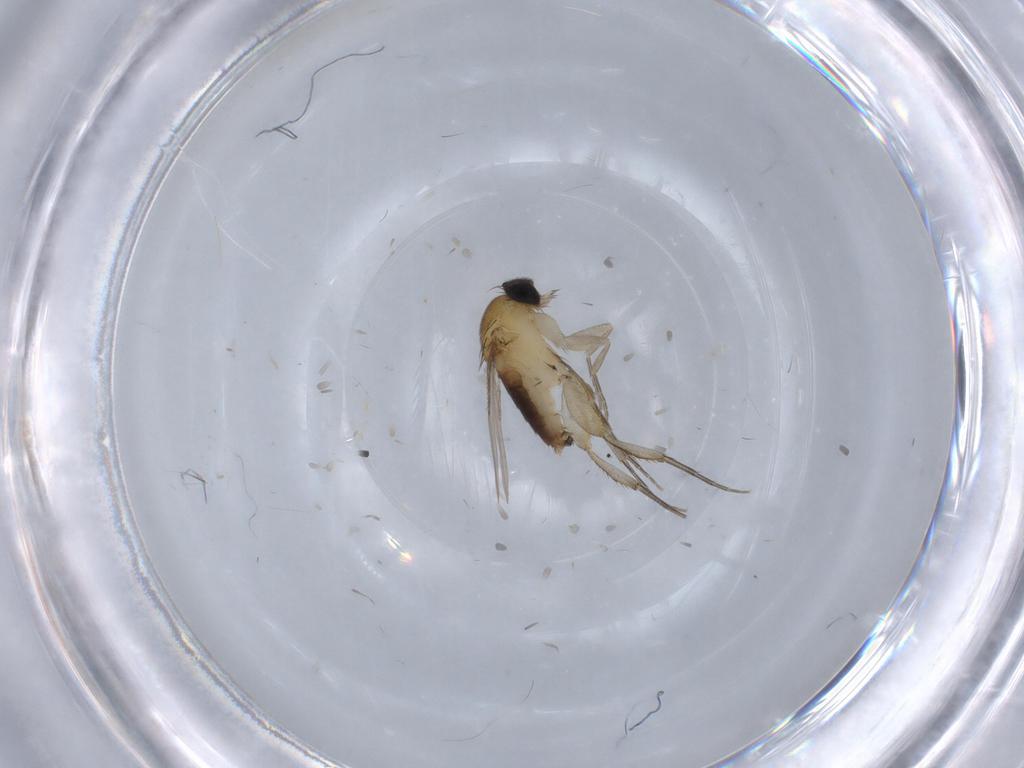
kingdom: Animalia
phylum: Arthropoda
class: Insecta
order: Diptera
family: Phoridae
